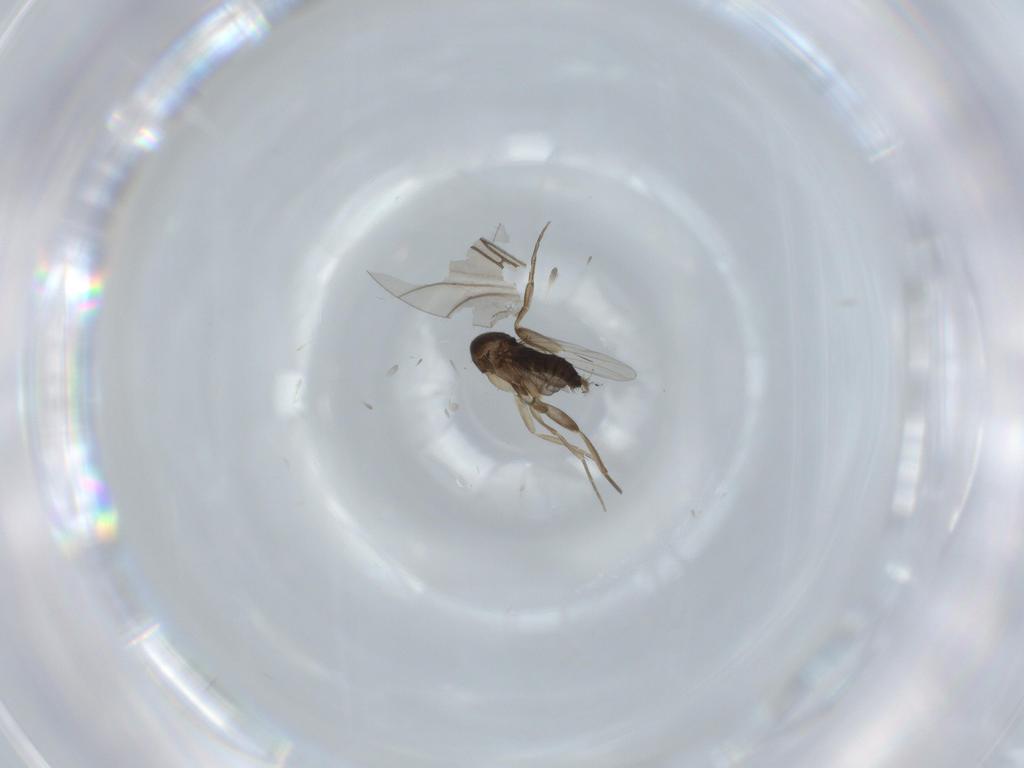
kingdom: Animalia
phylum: Arthropoda
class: Insecta
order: Diptera
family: Phoridae
